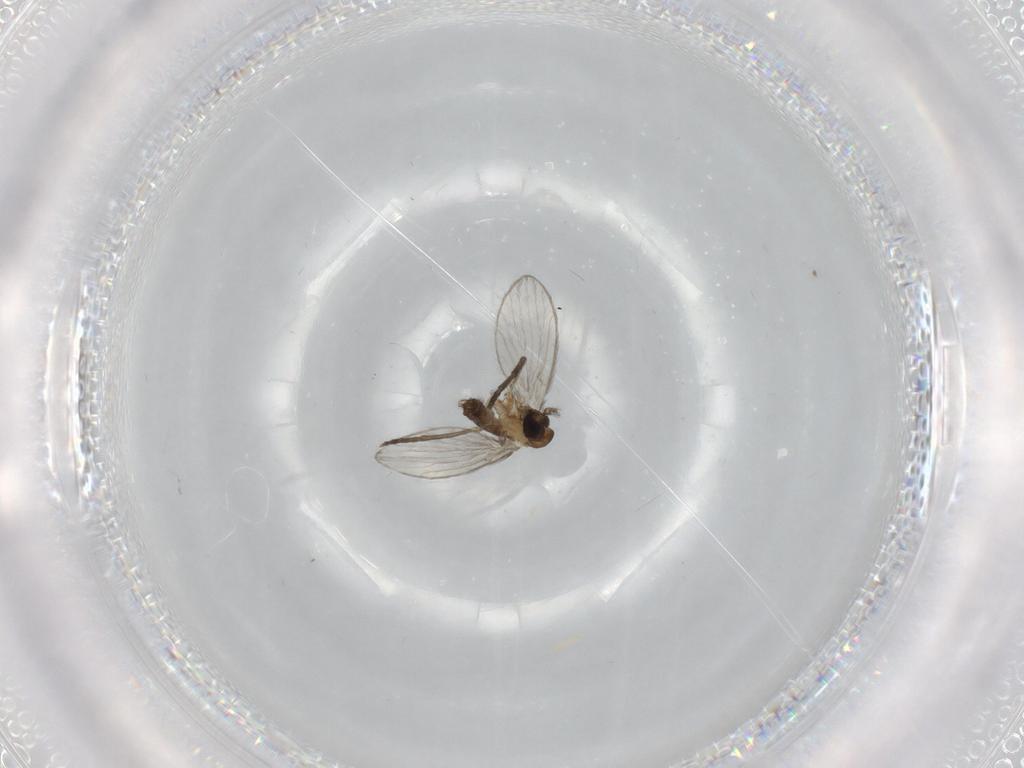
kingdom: Animalia
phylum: Arthropoda
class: Insecta
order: Diptera
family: Psychodidae
